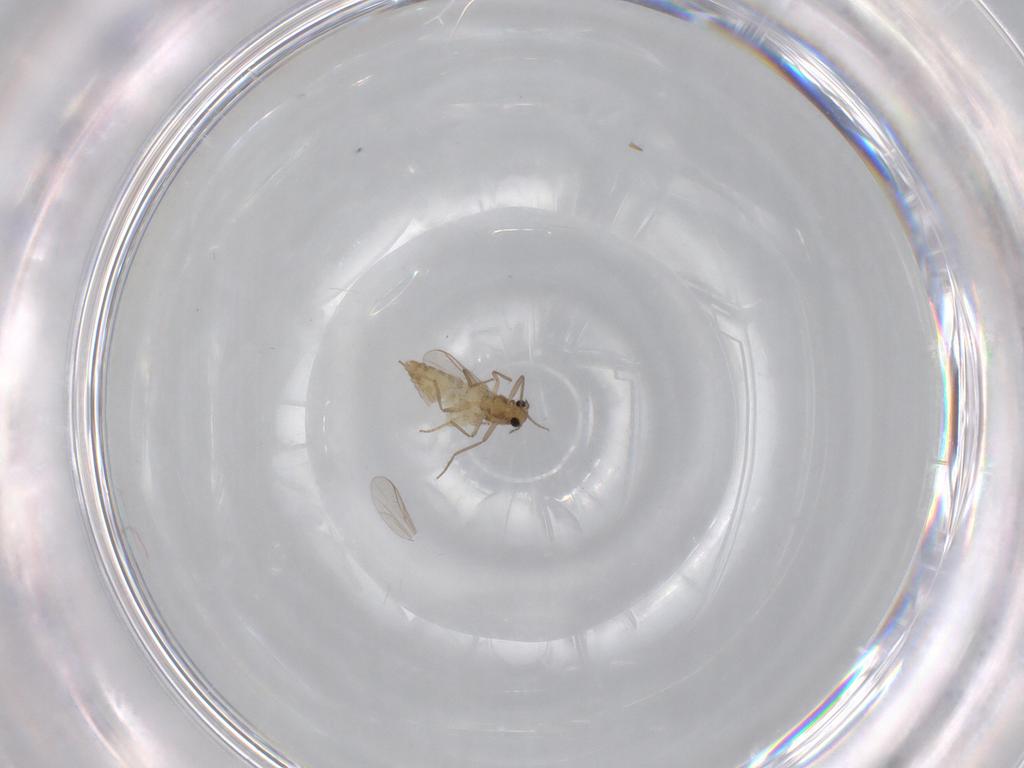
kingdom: Animalia
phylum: Arthropoda
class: Insecta
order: Diptera
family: Chironomidae
